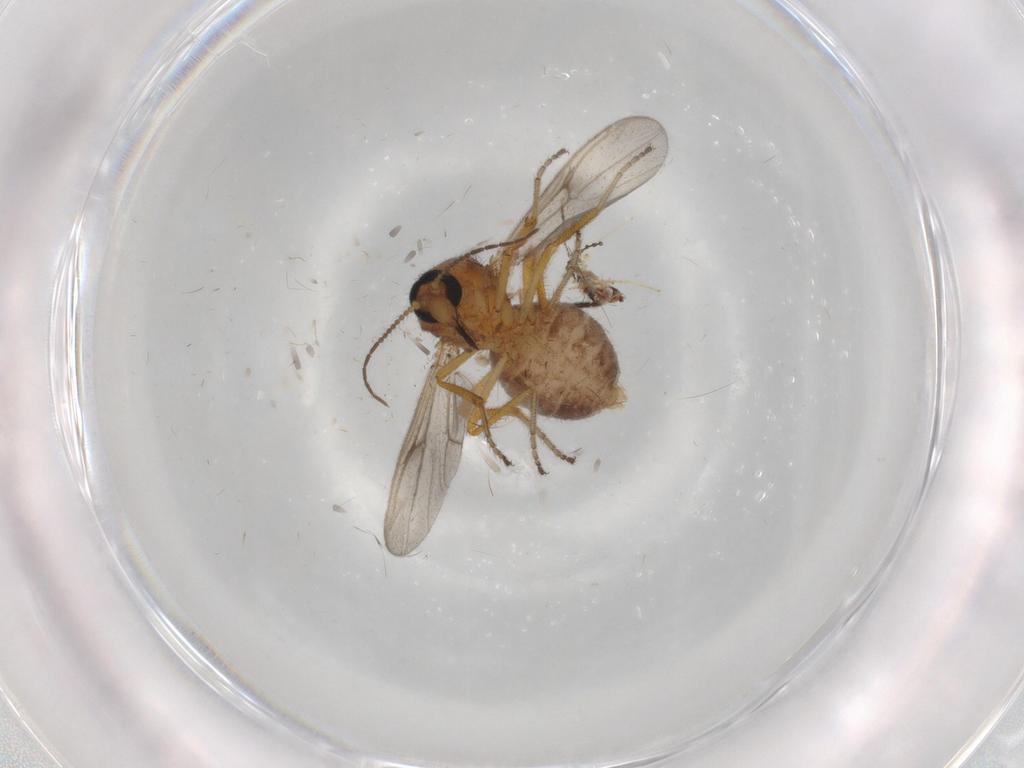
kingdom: Animalia
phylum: Arthropoda
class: Insecta
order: Diptera
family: Cecidomyiidae
